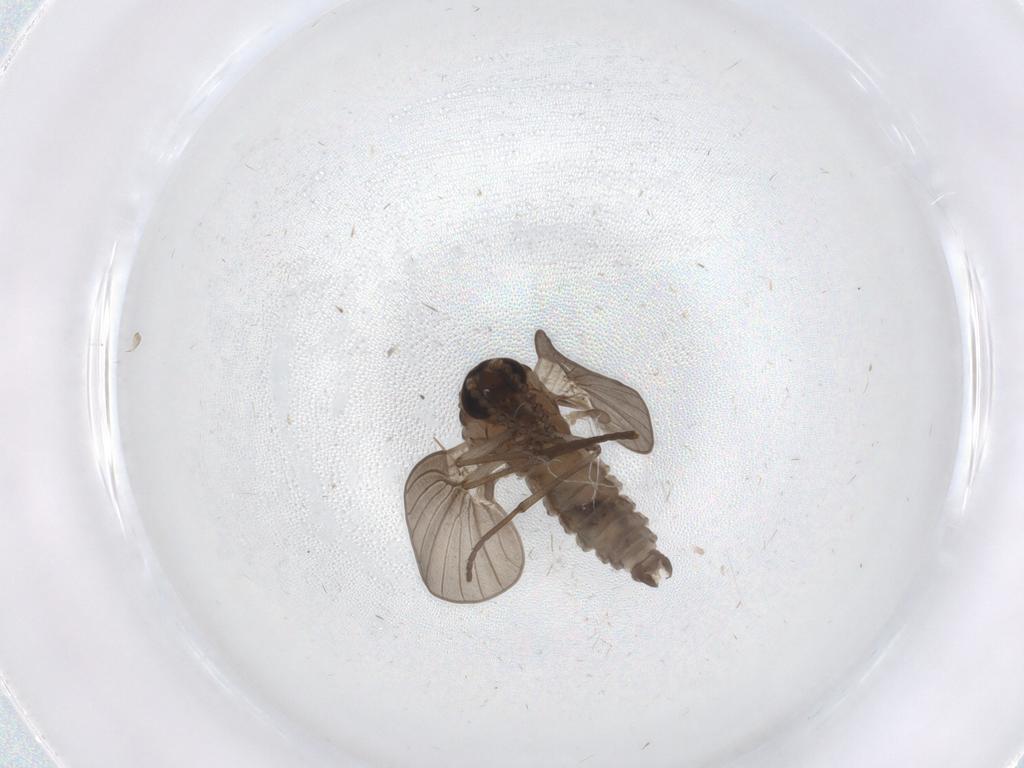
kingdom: Animalia
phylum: Arthropoda
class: Insecta
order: Diptera
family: Psychodidae
